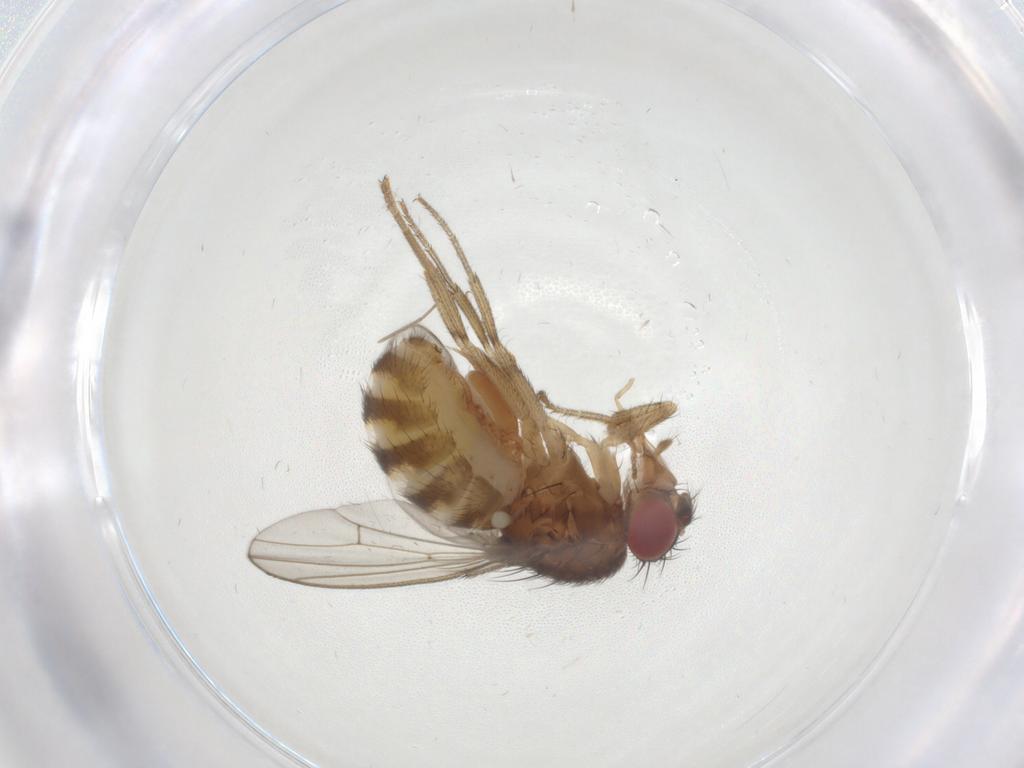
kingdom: Animalia
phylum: Arthropoda
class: Insecta
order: Diptera
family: Drosophilidae
